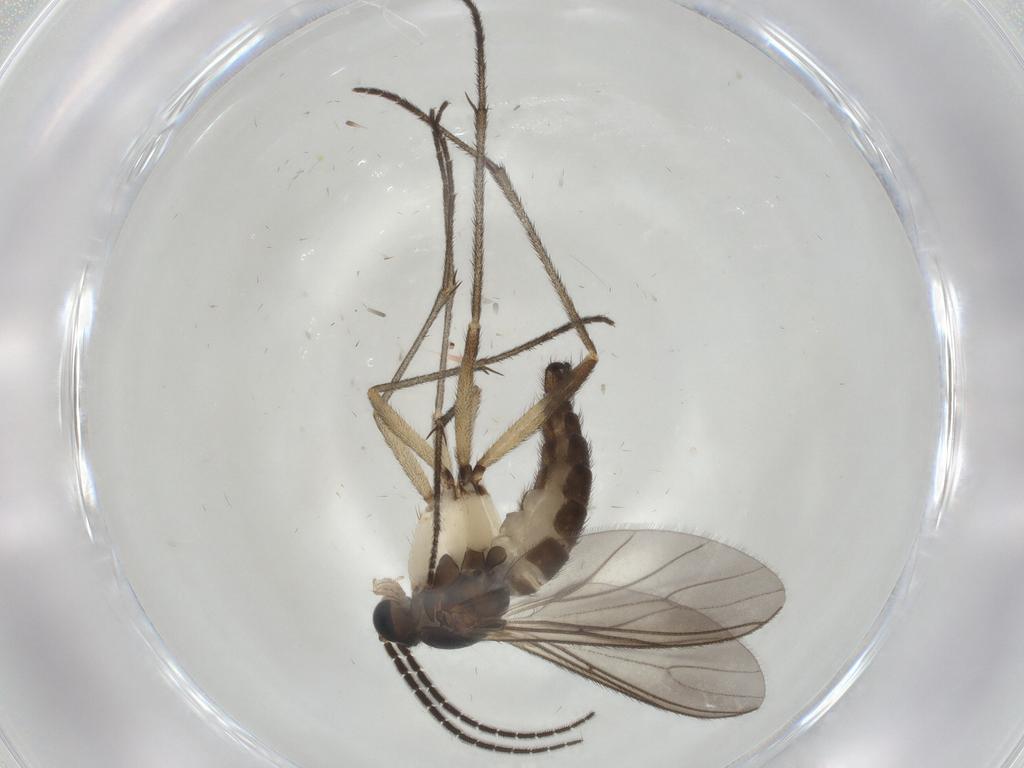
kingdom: Animalia
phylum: Arthropoda
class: Insecta
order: Diptera
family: Sciaridae
